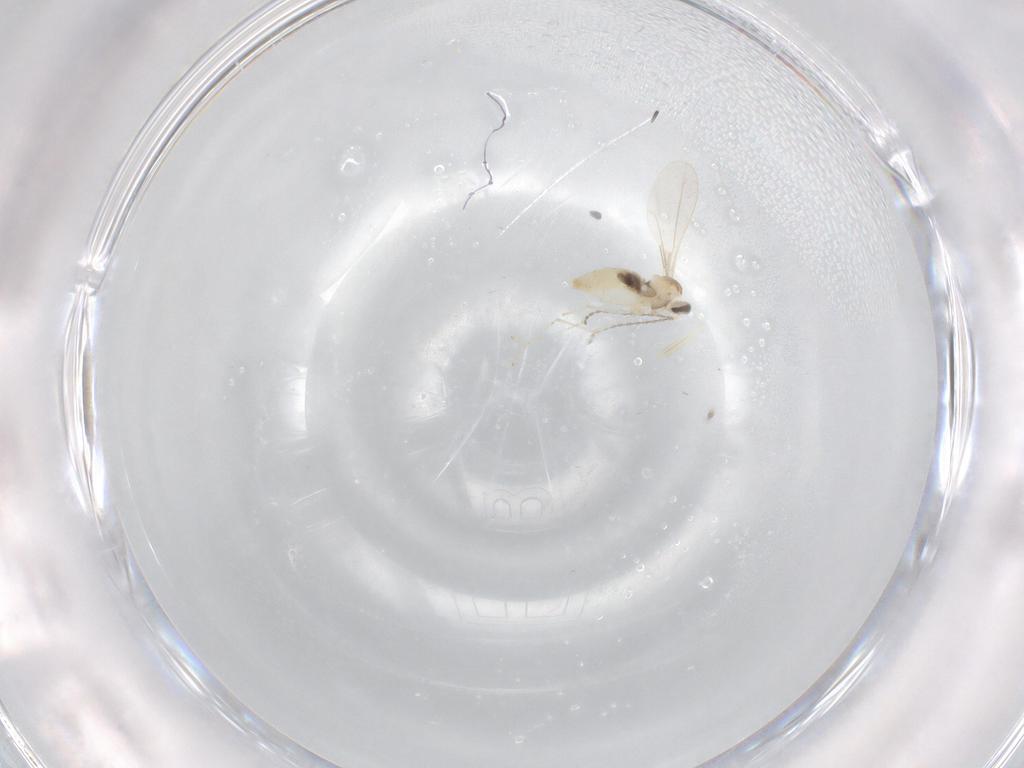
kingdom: Animalia
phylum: Arthropoda
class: Insecta
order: Diptera
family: Cecidomyiidae
